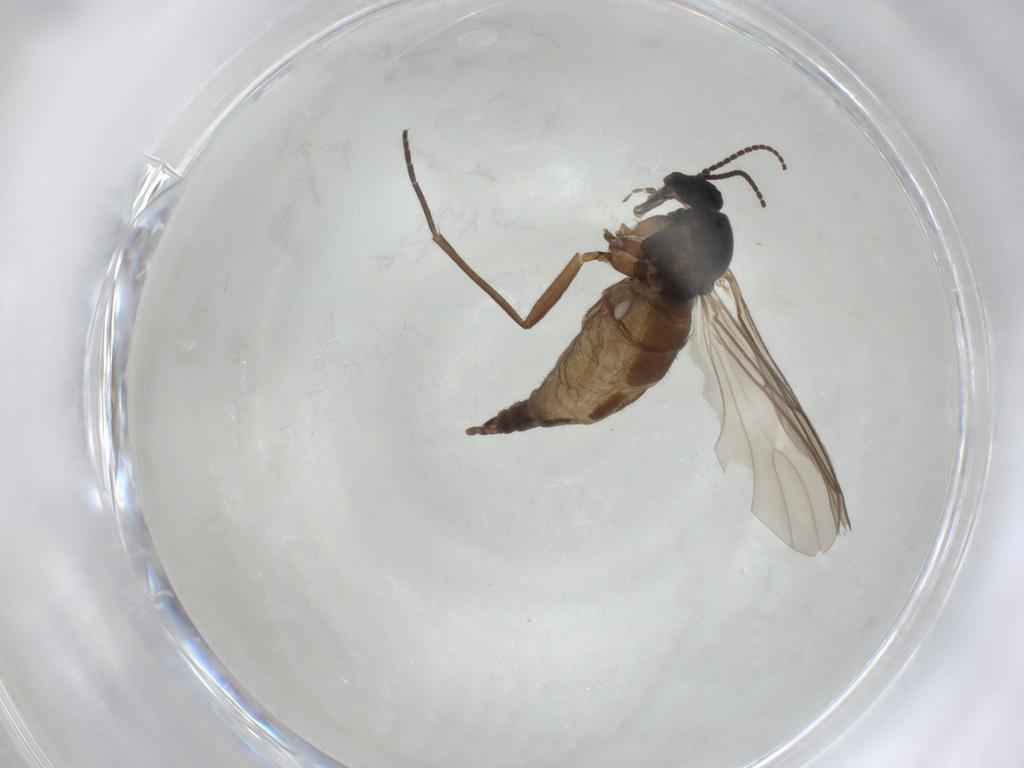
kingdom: Animalia
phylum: Arthropoda
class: Insecta
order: Diptera
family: Sciaridae
